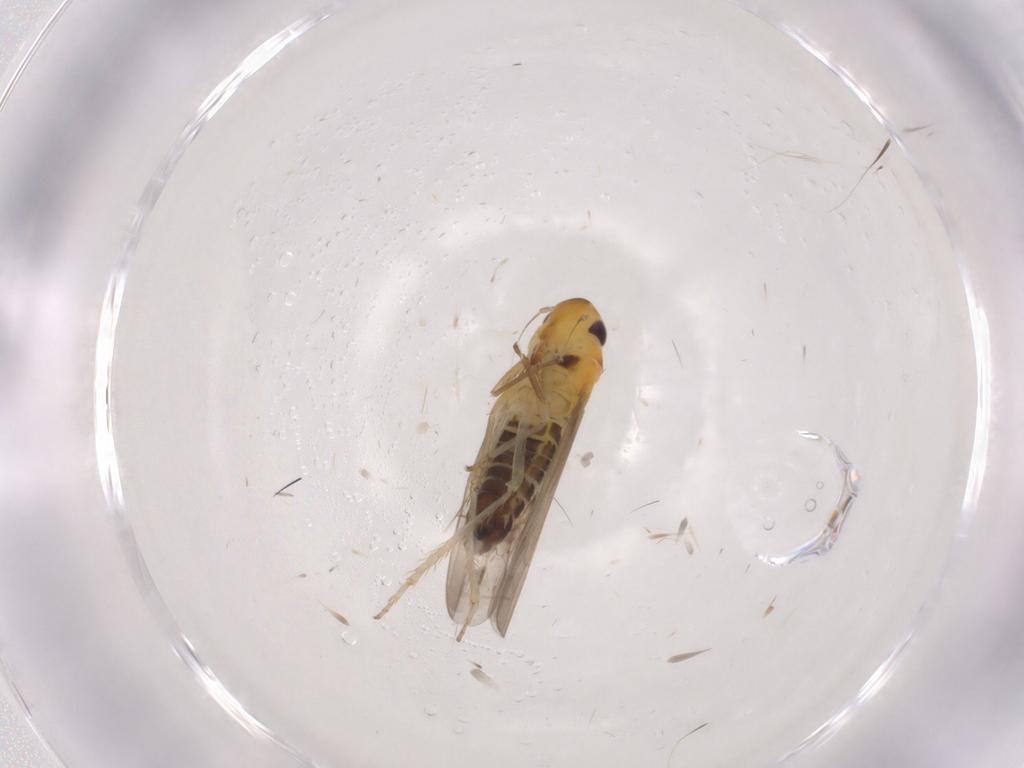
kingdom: Animalia
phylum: Arthropoda
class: Insecta
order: Hemiptera
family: Cicadellidae
